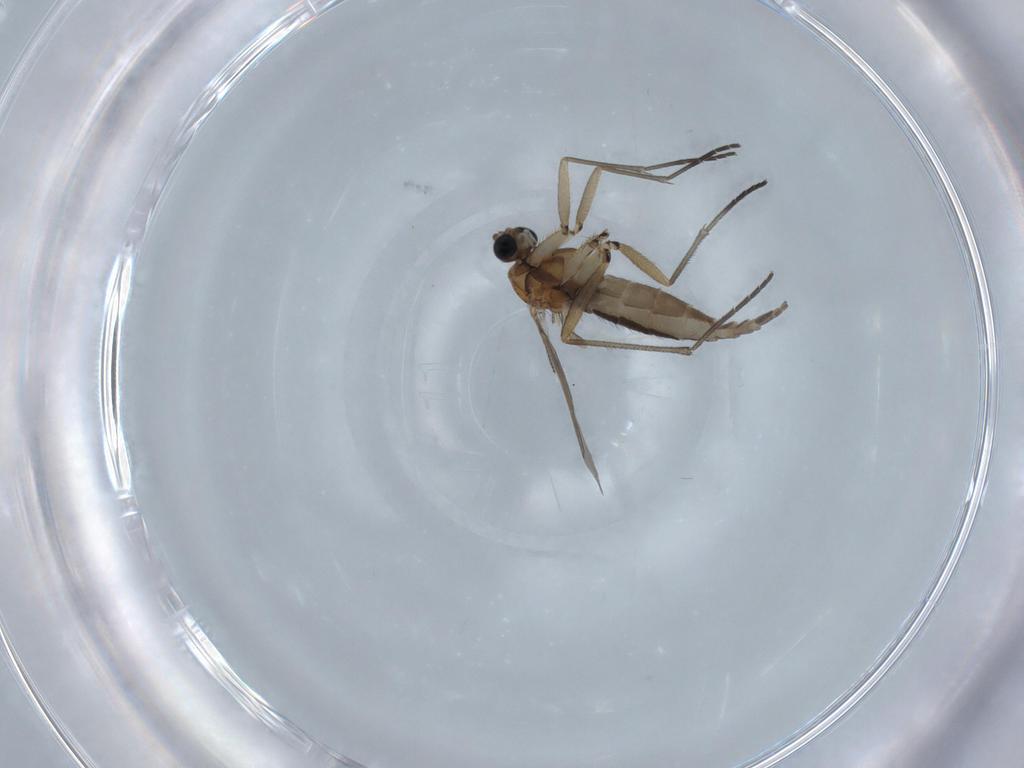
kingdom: Animalia
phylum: Arthropoda
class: Insecta
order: Diptera
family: Sciaridae
